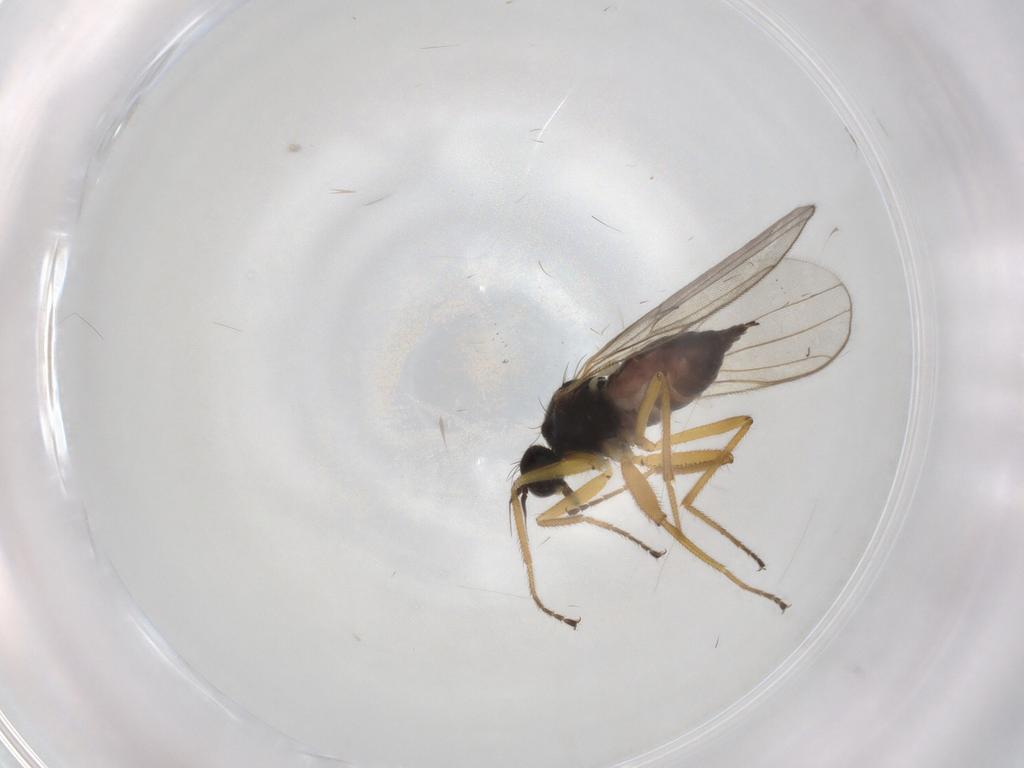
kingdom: Animalia
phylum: Arthropoda
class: Insecta
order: Diptera
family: Hybotidae
